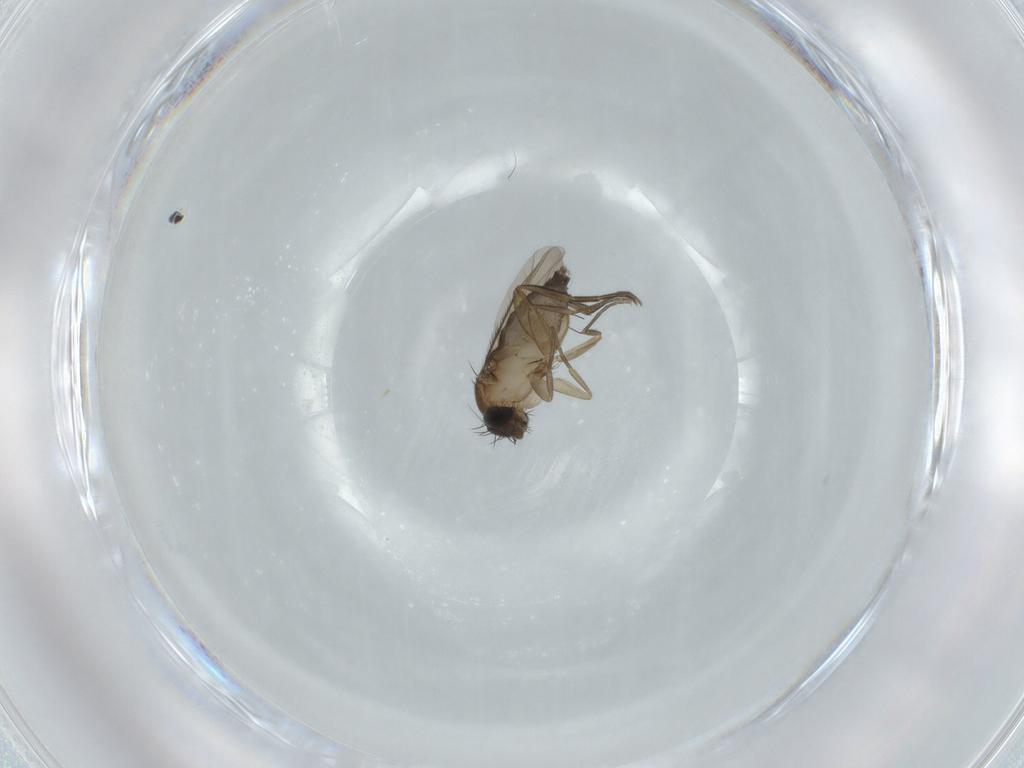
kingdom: Animalia
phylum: Arthropoda
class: Insecta
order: Diptera
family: Phoridae
